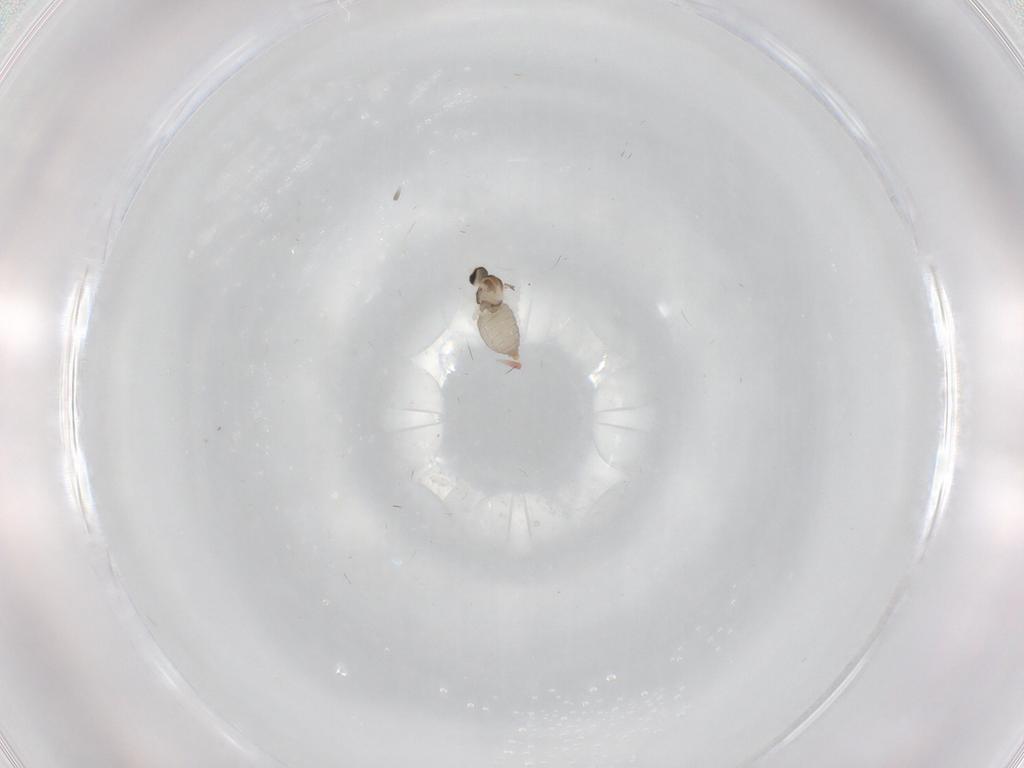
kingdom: Animalia
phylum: Arthropoda
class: Insecta
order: Diptera
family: Cecidomyiidae
